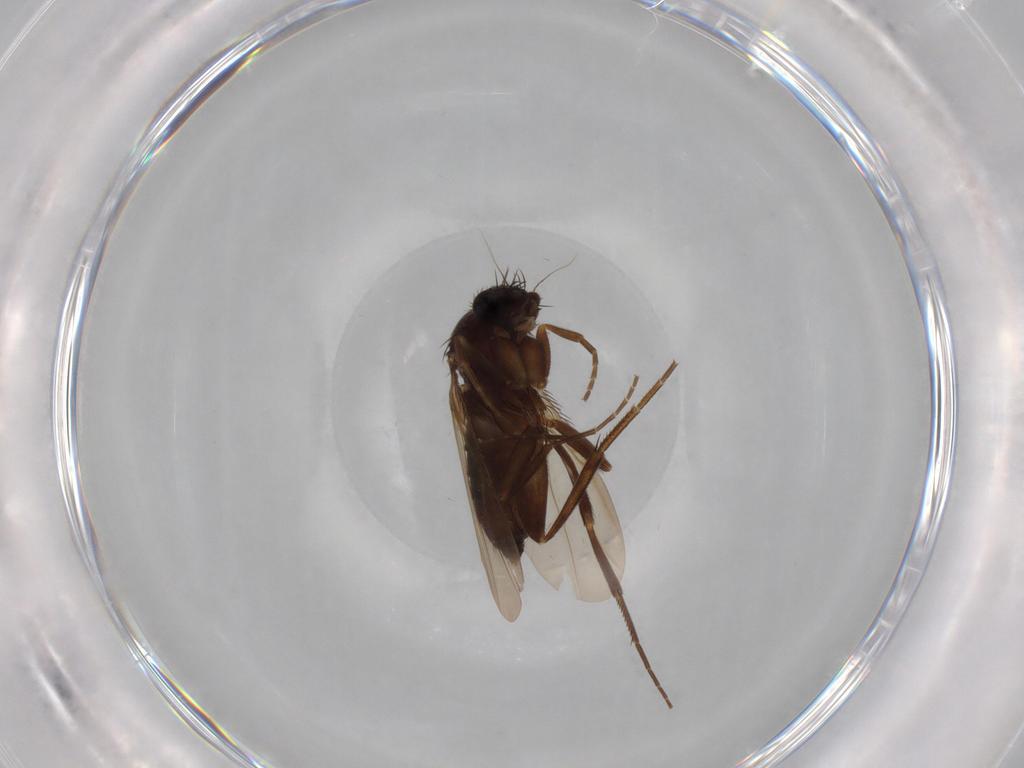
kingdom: Animalia
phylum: Arthropoda
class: Insecta
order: Diptera
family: Phoridae
